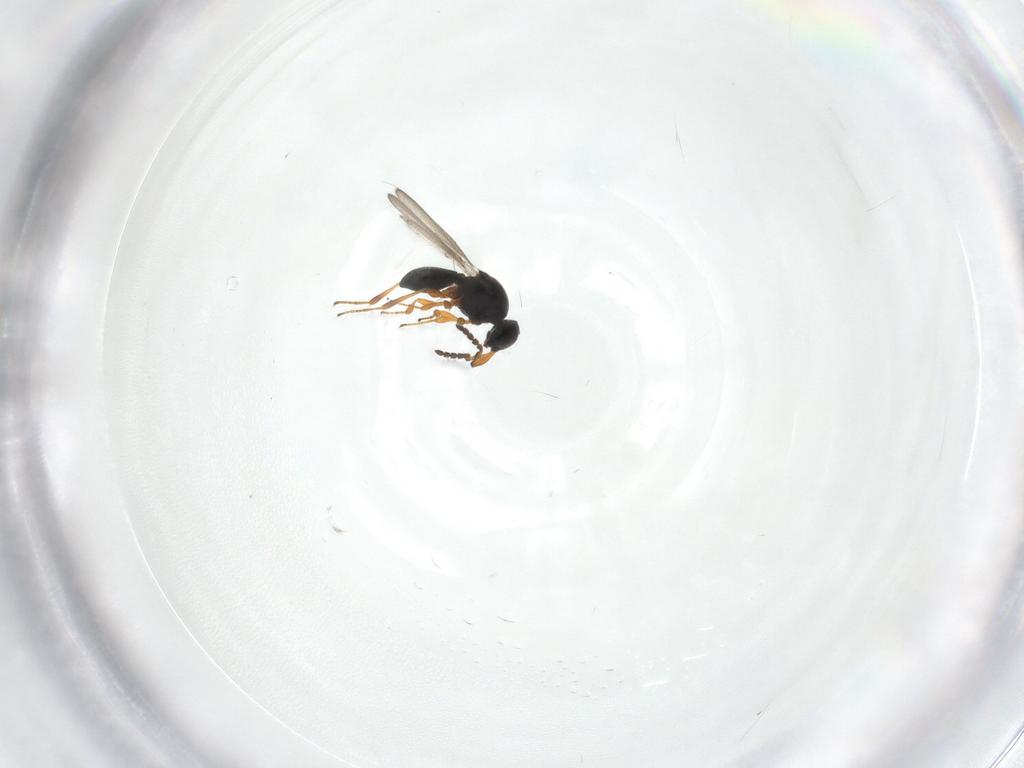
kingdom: Animalia
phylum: Arthropoda
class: Insecta
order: Hymenoptera
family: Platygastridae
